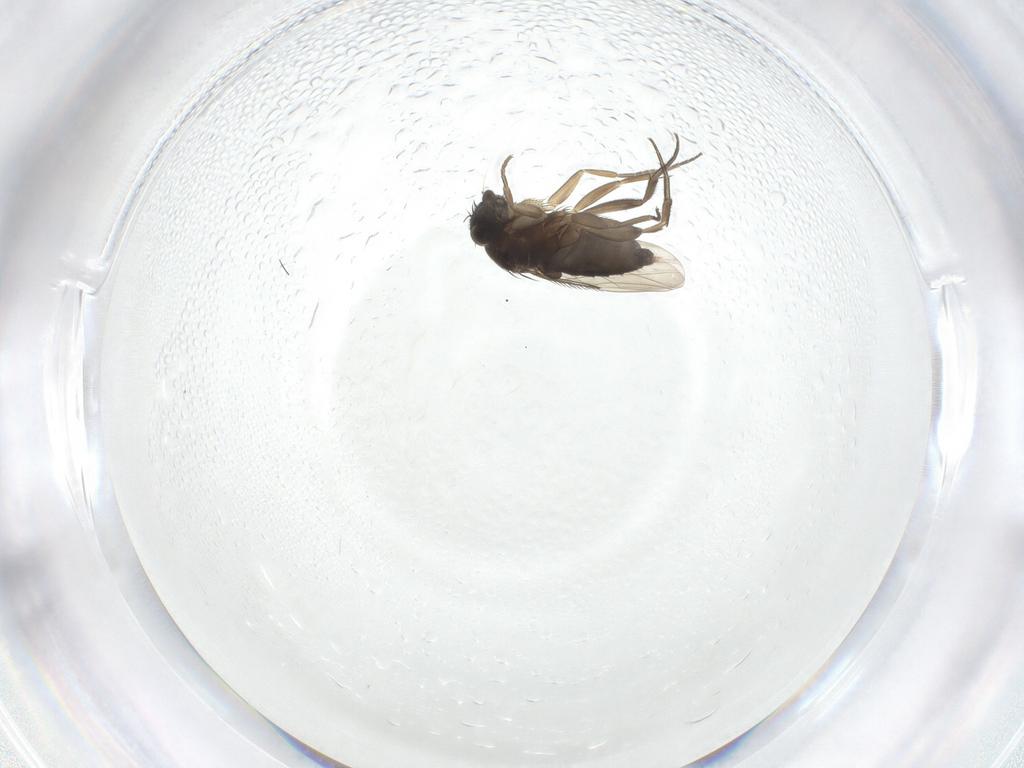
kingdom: Animalia
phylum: Arthropoda
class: Insecta
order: Diptera
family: Phoridae
